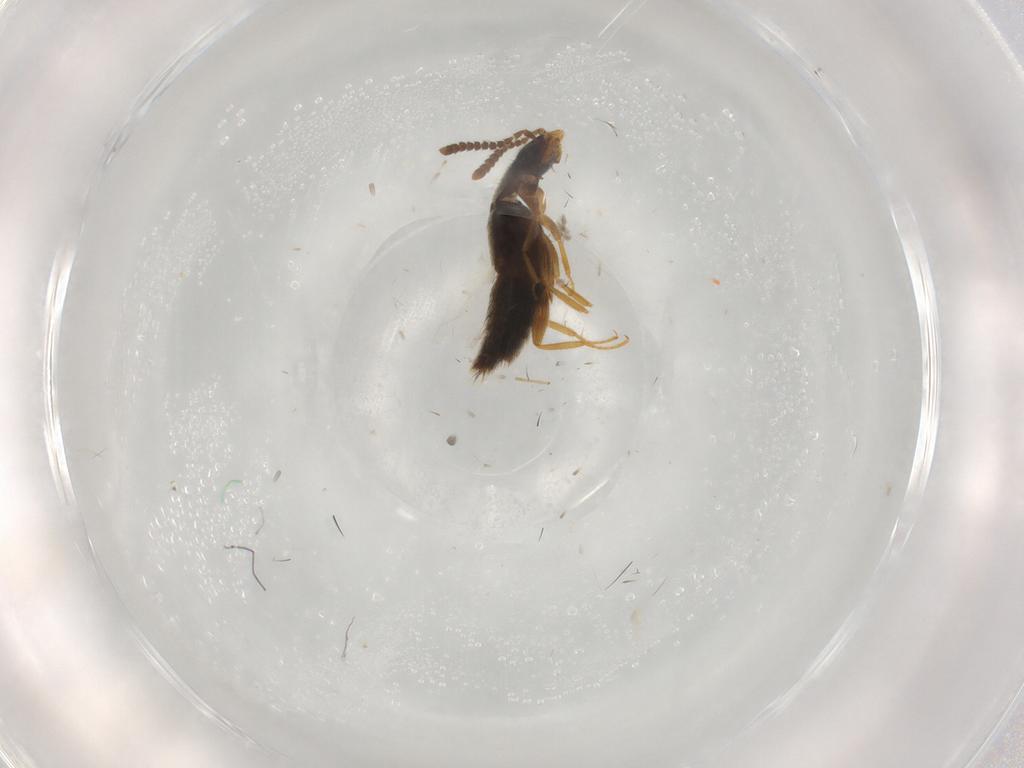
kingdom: Animalia
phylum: Arthropoda
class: Insecta
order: Coleoptera
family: Staphylinidae
